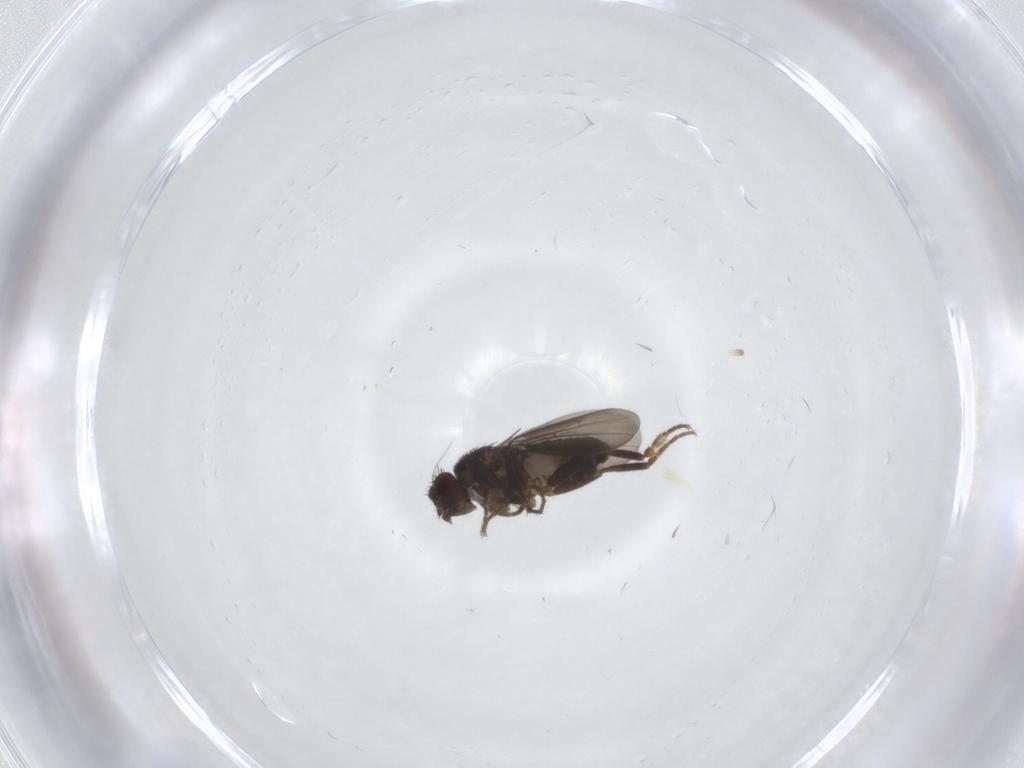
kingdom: Animalia
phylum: Arthropoda
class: Insecta
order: Diptera
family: Sphaeroceridae
